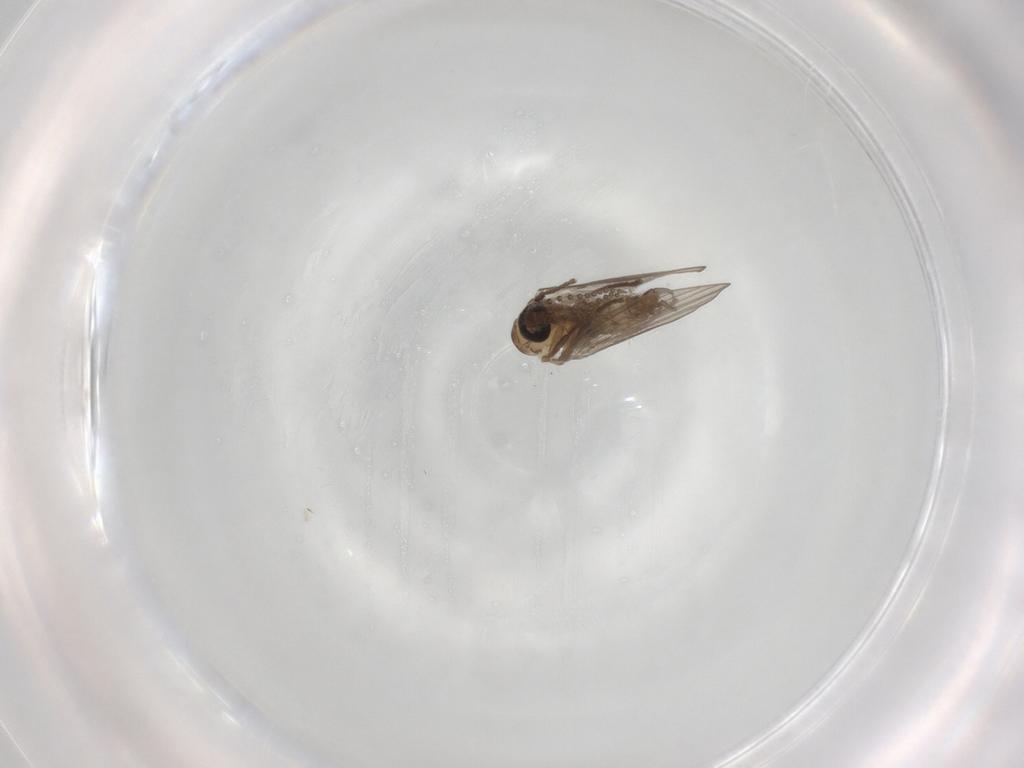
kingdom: Animalia
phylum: Arthropoda
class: Insecta
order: Diptera
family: Psychodidae
